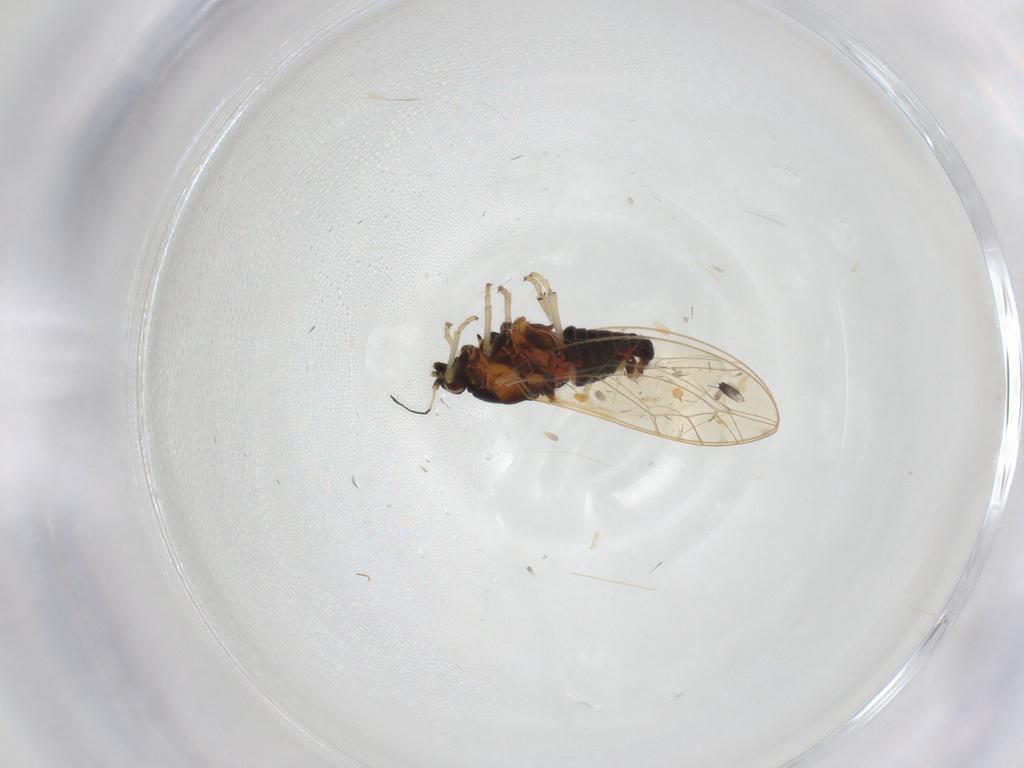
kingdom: Animalia
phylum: Arthropoda
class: Insecta
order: Hemiptera
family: Triozidae
